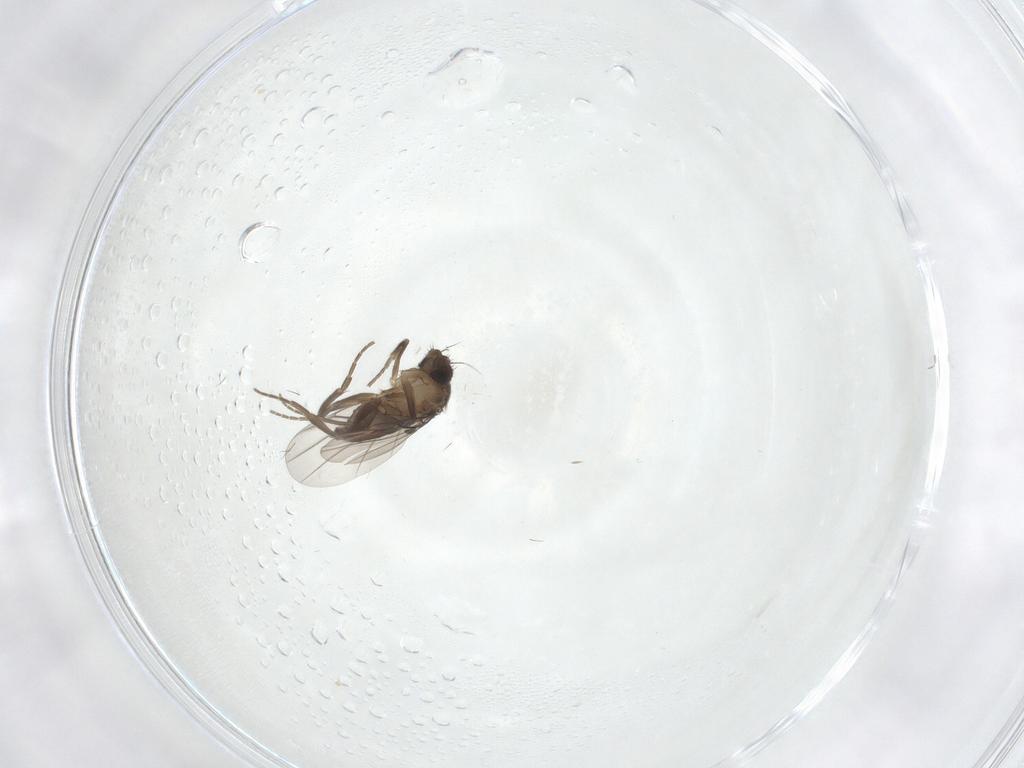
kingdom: Animalia
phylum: Arthropoda
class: Insecta
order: Diptera
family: Phoridae
